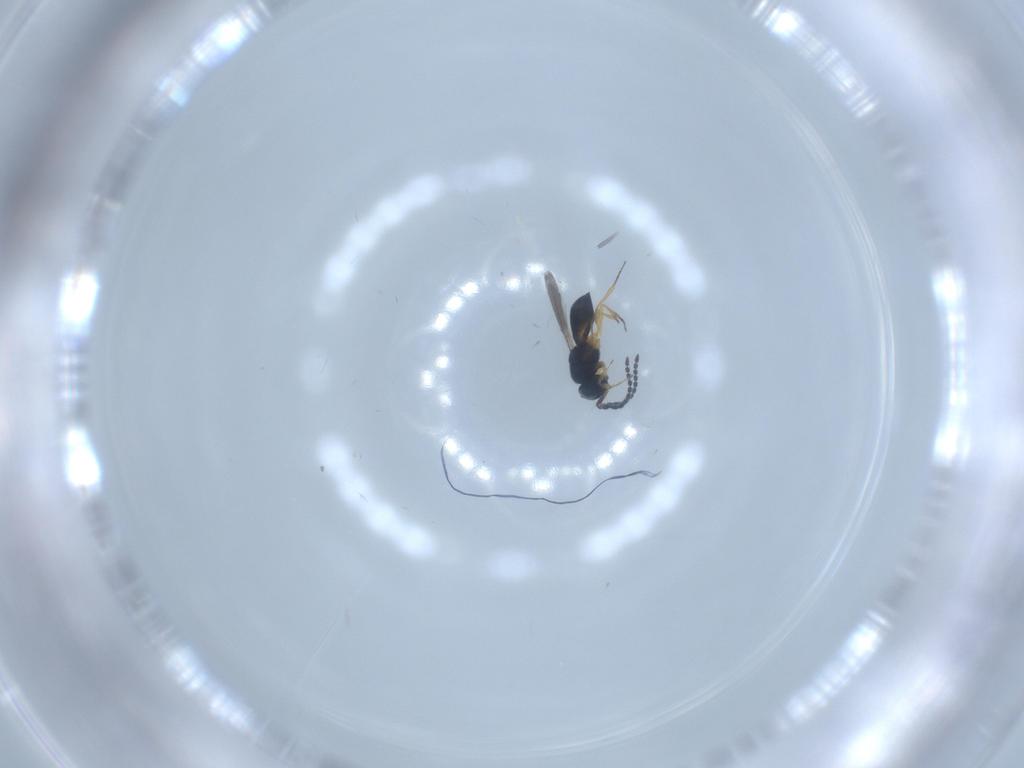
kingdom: Animalia
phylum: Arthropoda
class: Insecta
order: Hymenoptera
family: Scelionidae
